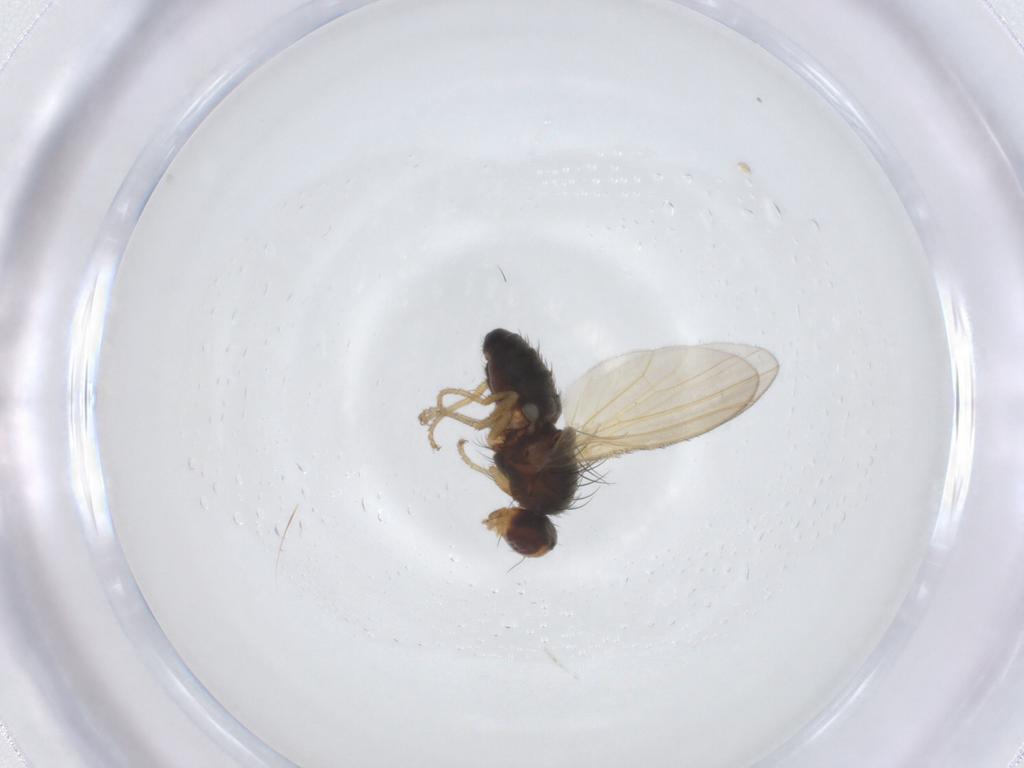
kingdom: Animalia
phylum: Arthropoda
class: Insecta
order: Diptera
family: Heleomyzidae
